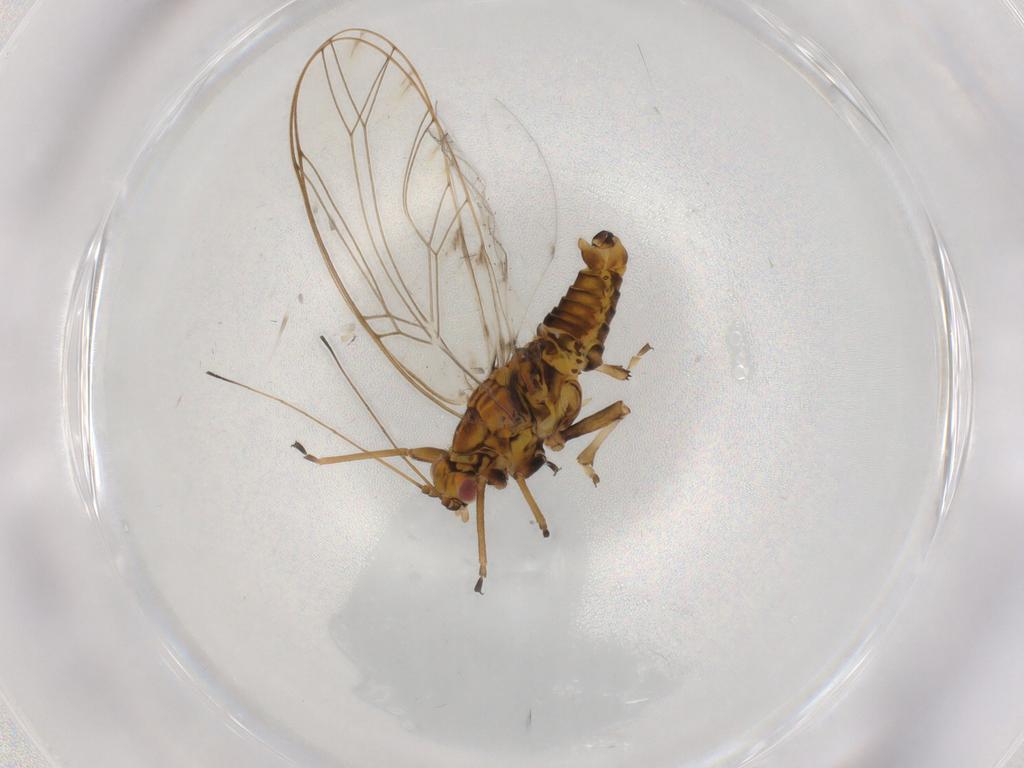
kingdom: Animalia
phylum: Arthropoda
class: Insecta
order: Hemiptera
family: Triozidae
